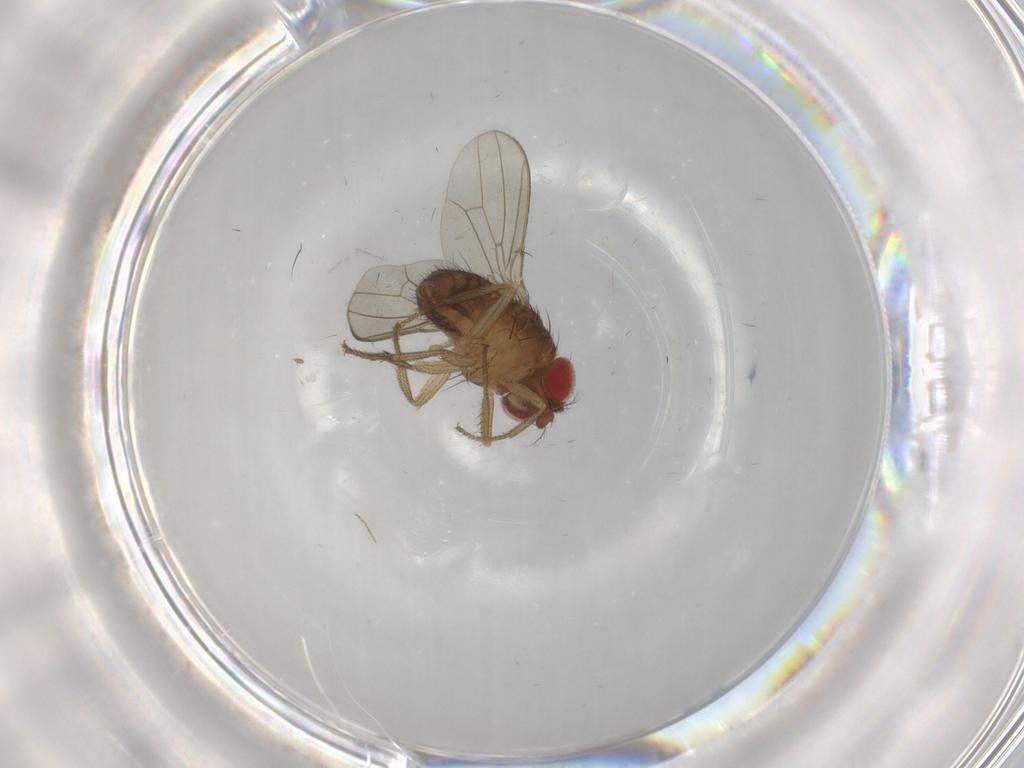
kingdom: Animalia
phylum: Arthropoda
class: Insecta
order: Diptera
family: Drosophilidae
